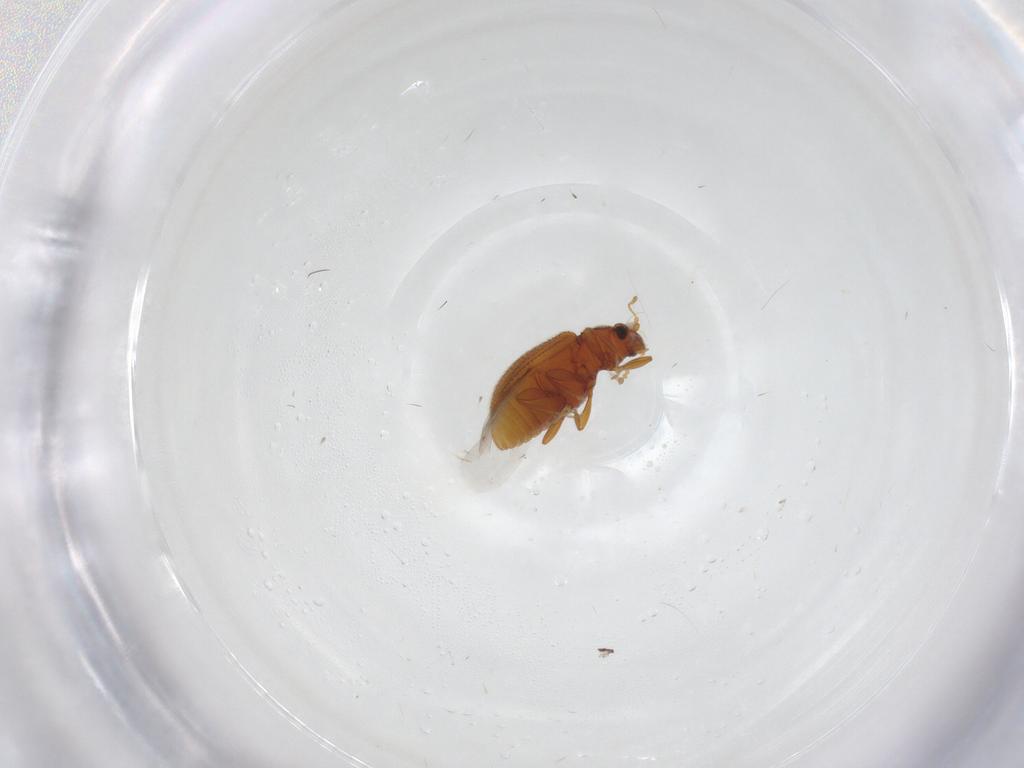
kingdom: Animalia
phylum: Arthropoda
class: Insecta
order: Coleoptera
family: Latridiidae
